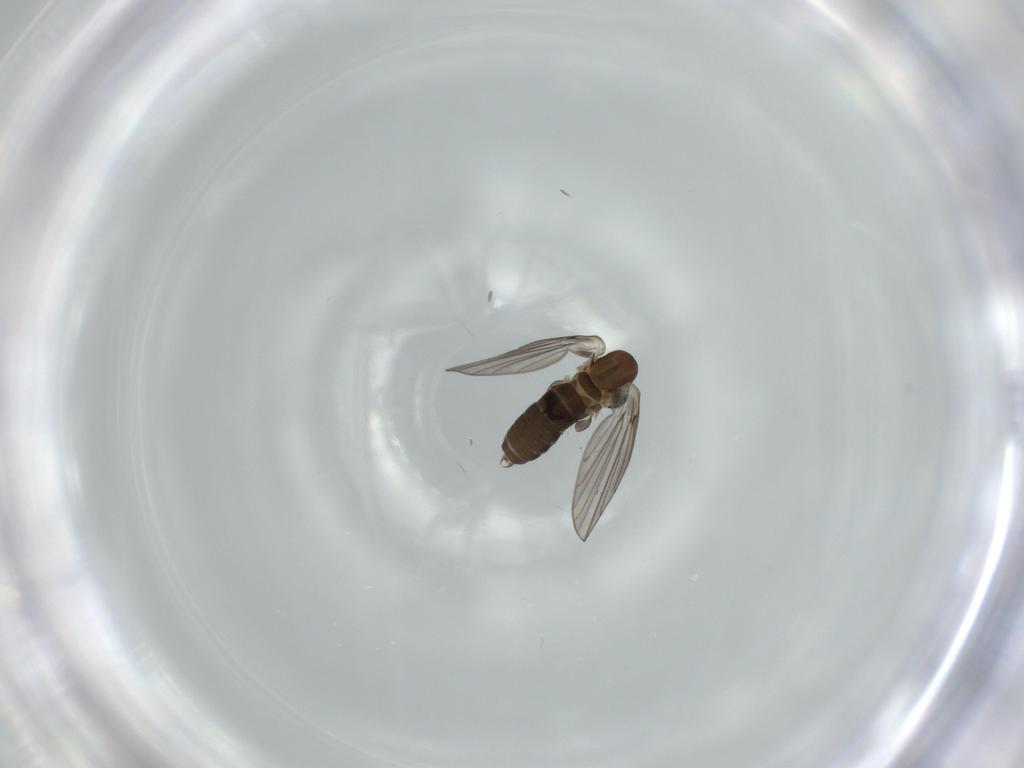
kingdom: Animalia
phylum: Arthropoda
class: Insecta
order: Diptera
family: Psychodidae
